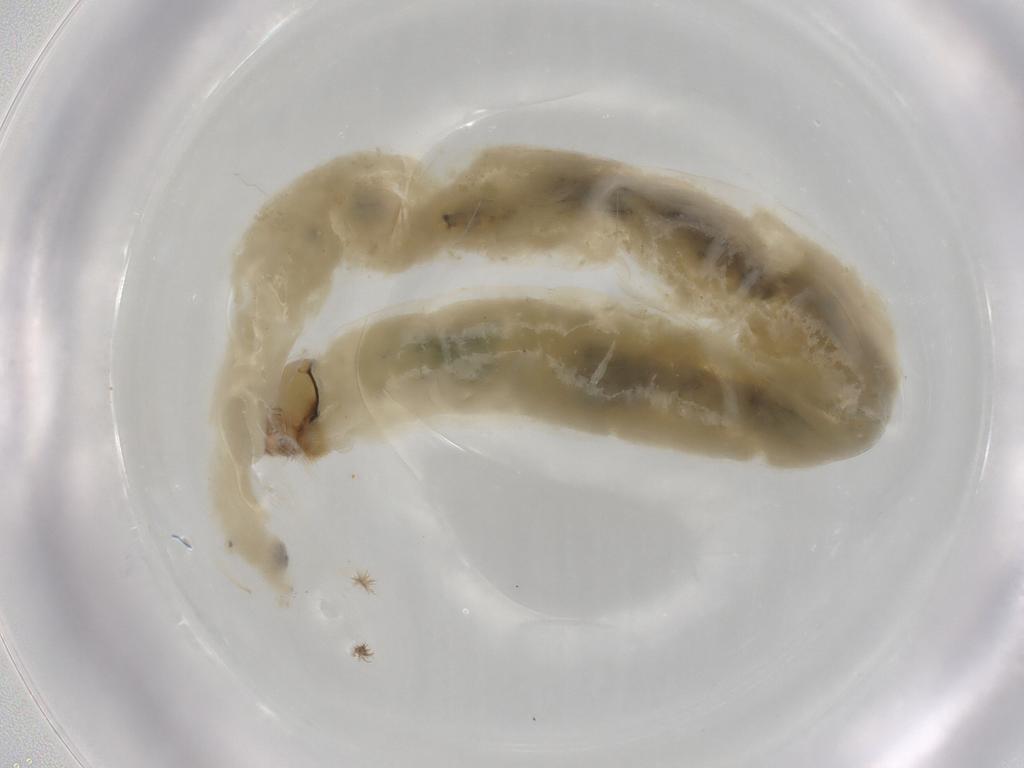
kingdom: Animalia
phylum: Arthropoda
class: Insecta
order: Diptera
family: Chironomidae
